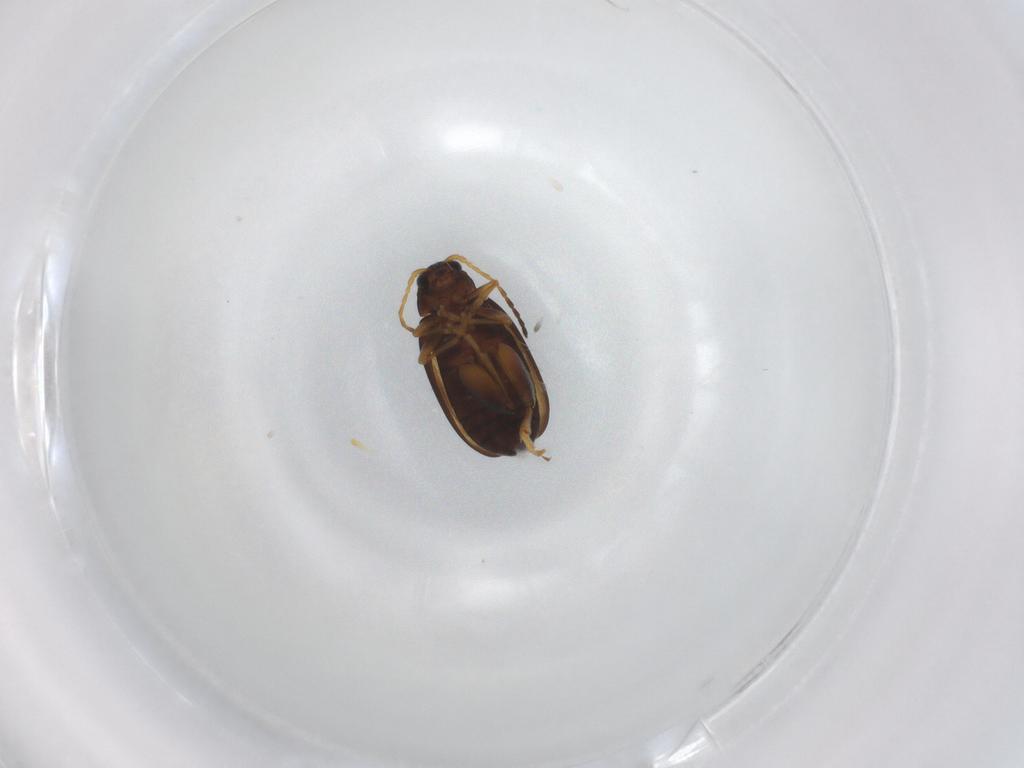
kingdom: Animalia
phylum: Arthropoda
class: Insecta
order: Coleoptera
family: Chrysomelidae
